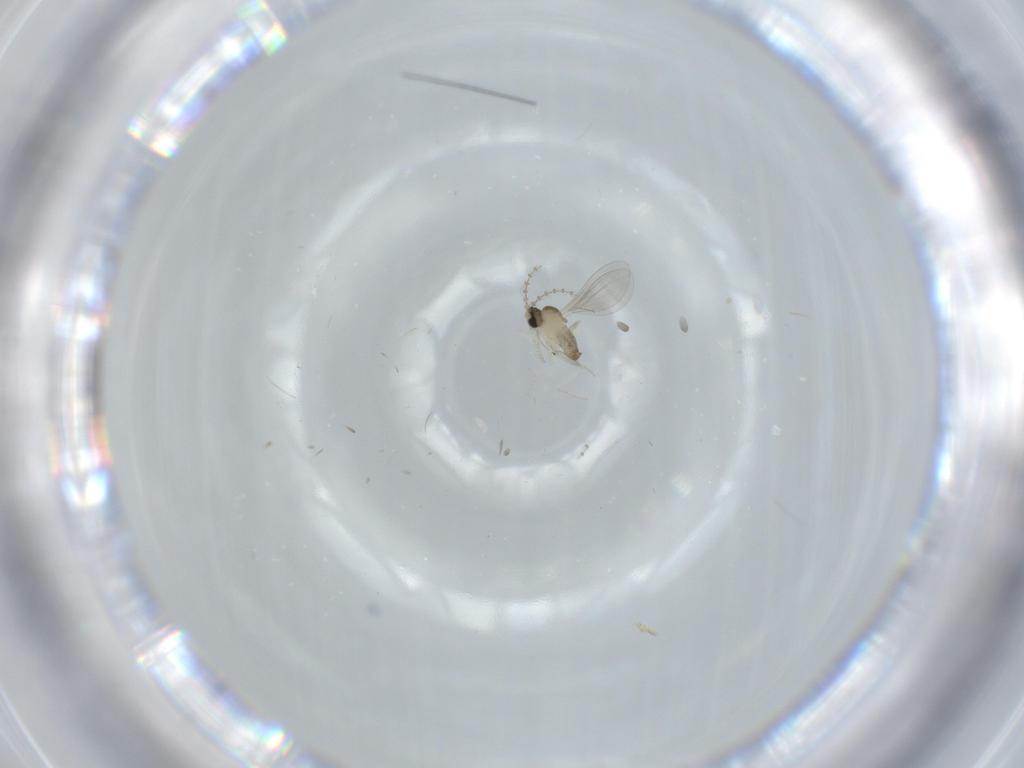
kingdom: Animalia
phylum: Arthropoda
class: Insecta
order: Diptera
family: Cecidomyiidae
